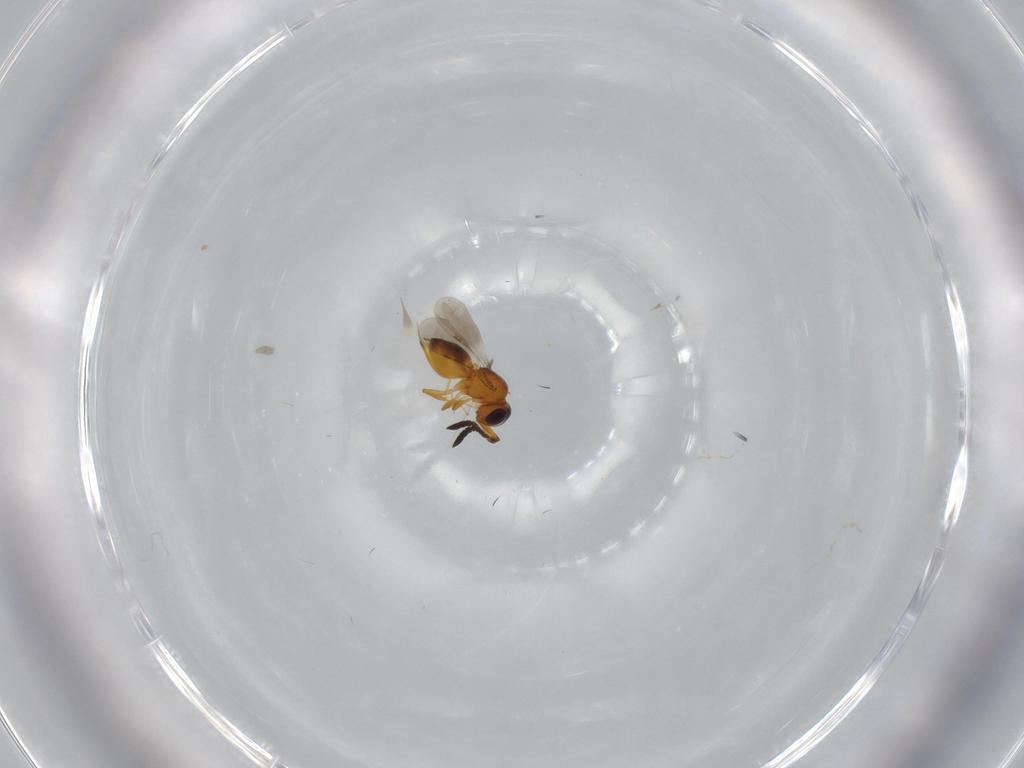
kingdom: Animalia
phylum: Arthropoda
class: Insecta
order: Hymenoptera
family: Ceraphronidae
